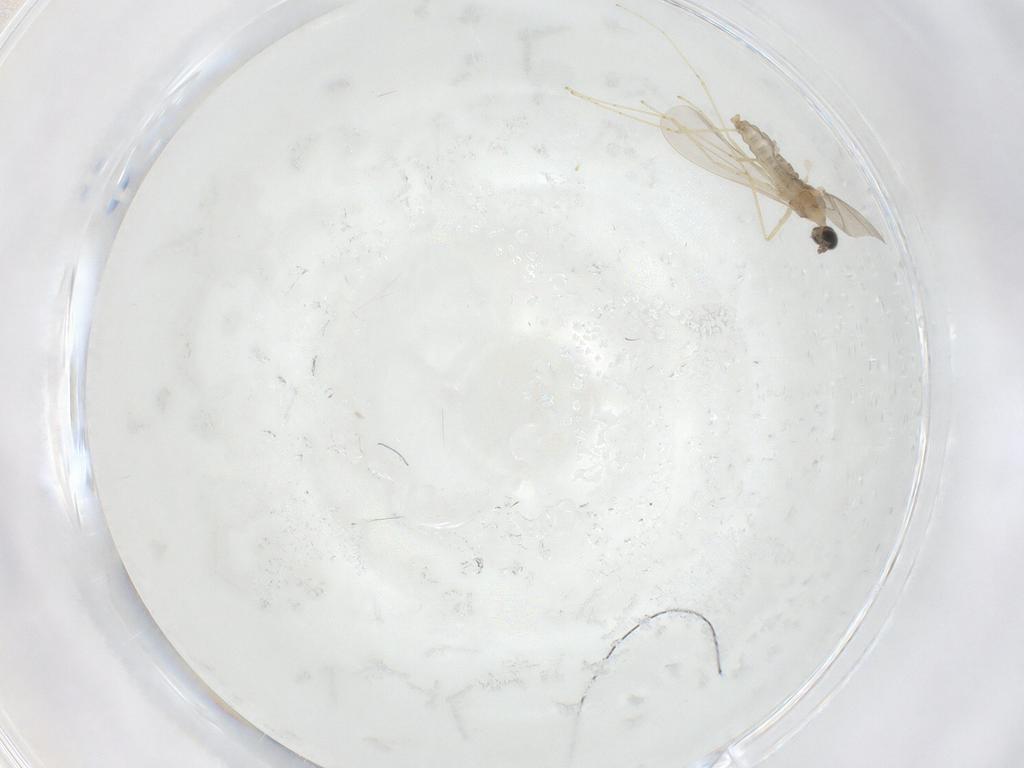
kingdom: Animalia
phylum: Arthropoda
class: Insecta
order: Diptera
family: Cecidomyiidae
